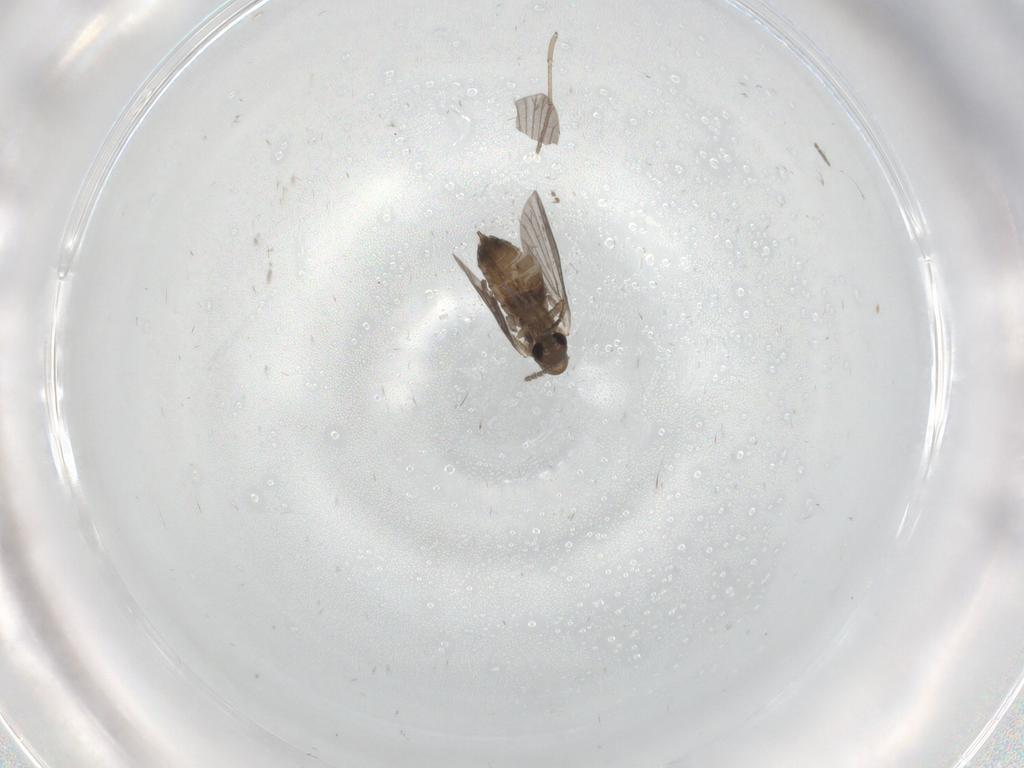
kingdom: Animalia
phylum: Arthropoda
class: Insecta
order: Diptera
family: Sciaridae
